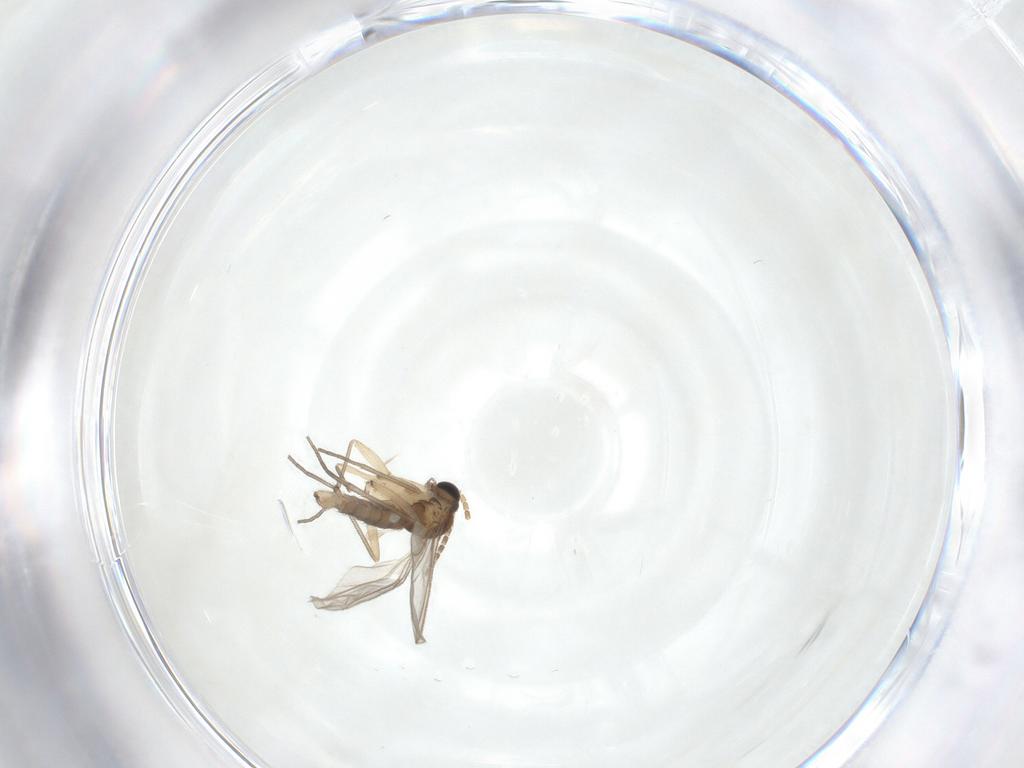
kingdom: Animalia
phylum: Arthropoda
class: Insecta
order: Diptera
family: Sciaridae
